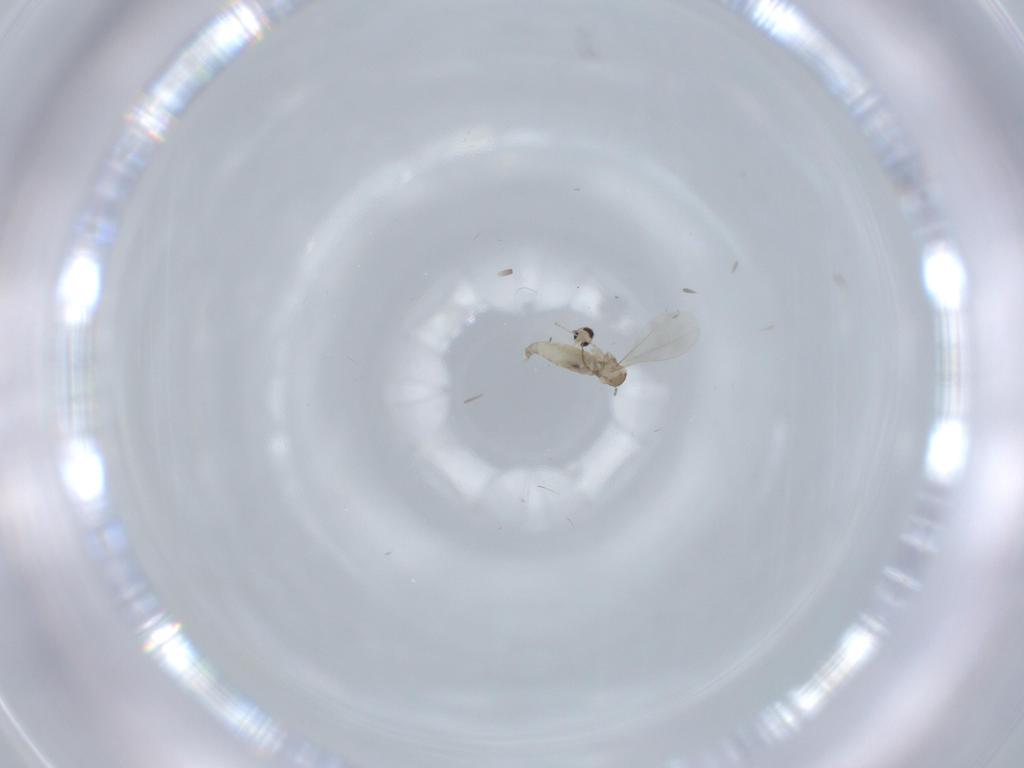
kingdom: Animalia
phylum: Arthropoda
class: Insecta
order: Diptera
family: Cecidomyiidae
